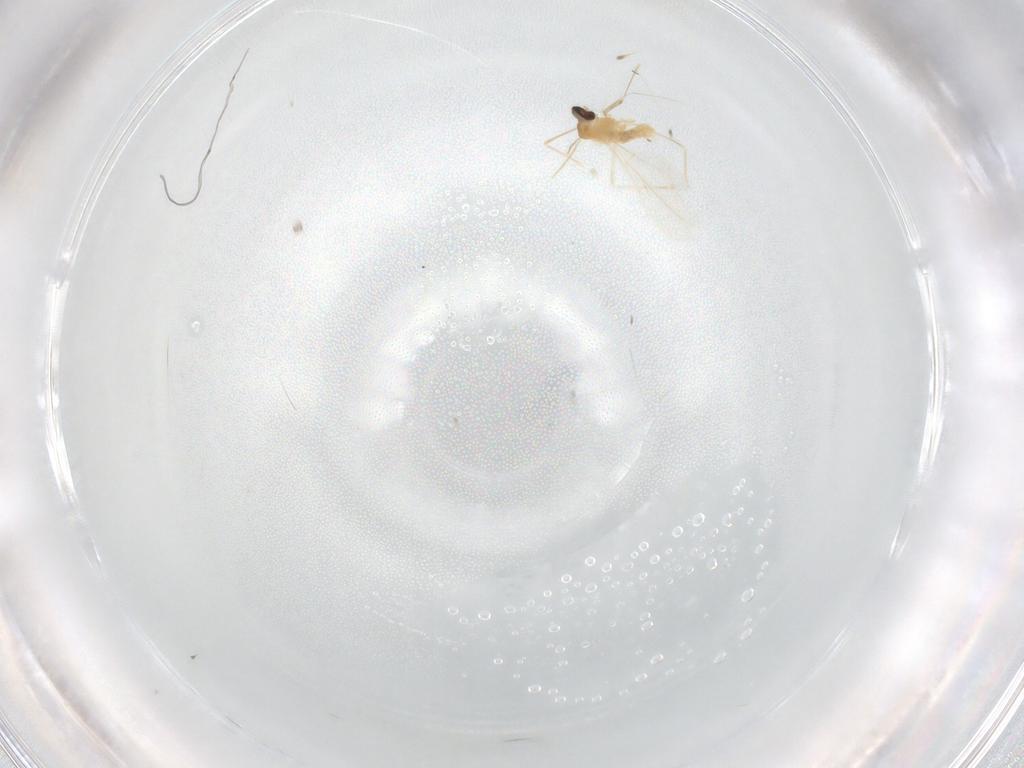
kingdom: Animalia
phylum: Arthropoda
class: Insecta
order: Diptera
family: Cecidomyiidae
